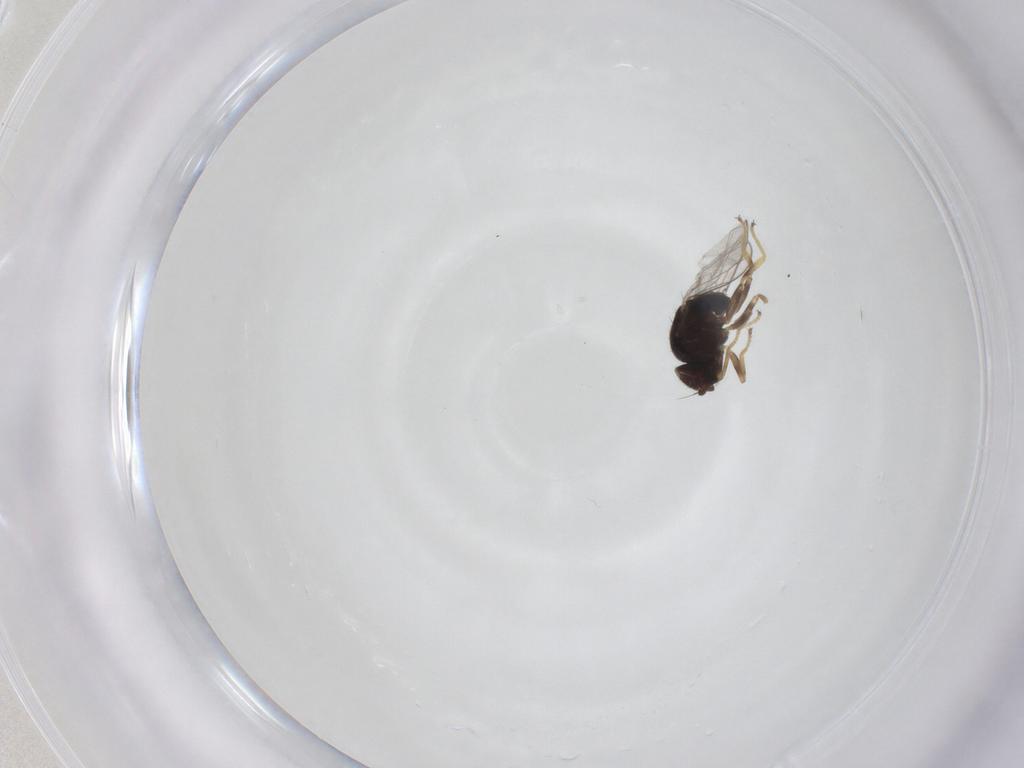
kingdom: Animalia
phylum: Arthropoda
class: Insecta
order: Diptera
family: Chloropidae
